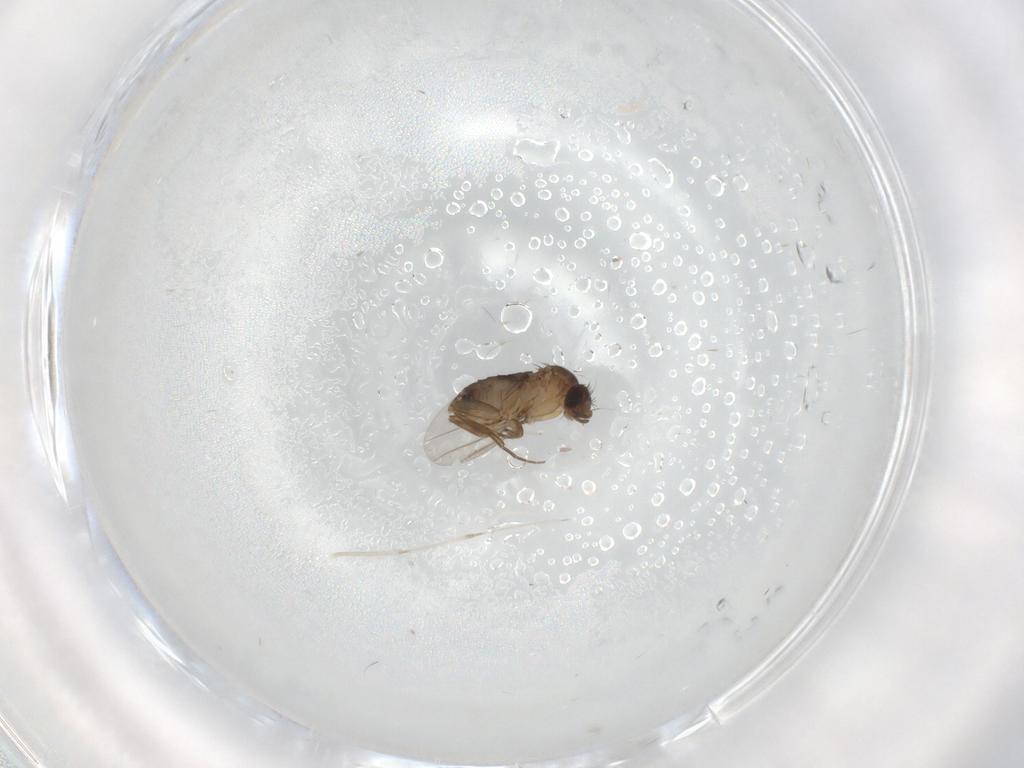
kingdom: Animalia
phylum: Arthropoda
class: Insecta
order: Diptera
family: Phoridae
